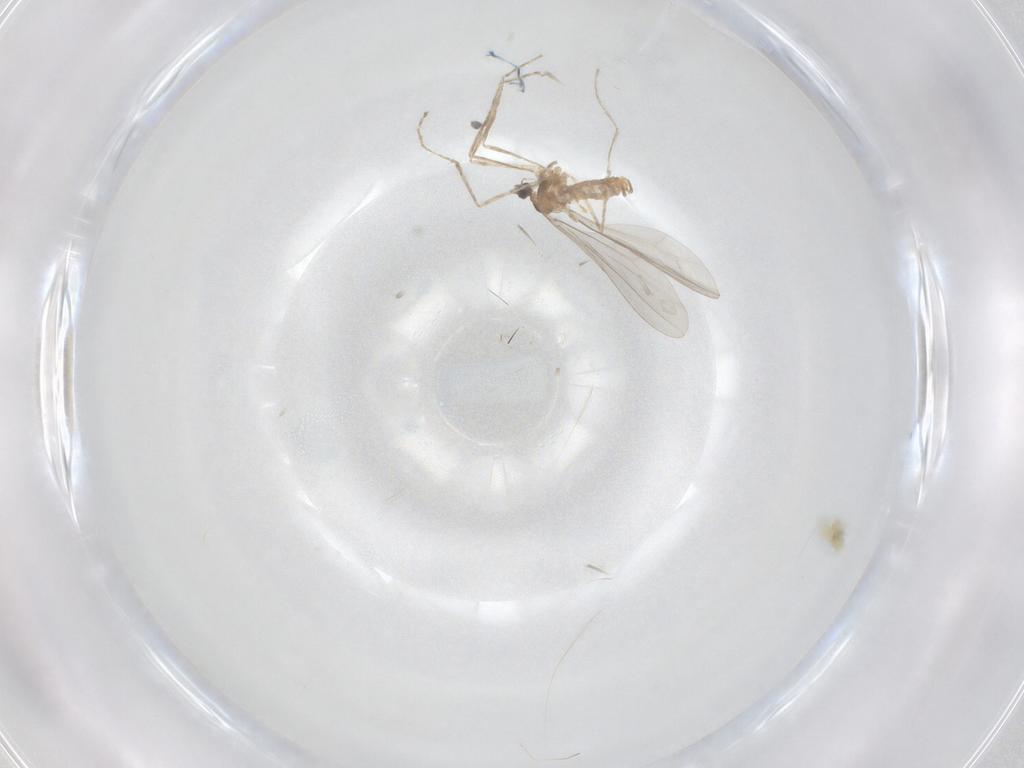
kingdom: Animalia
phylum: Arthropoda
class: Insecta
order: Diptera
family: Cecidomyiidae
